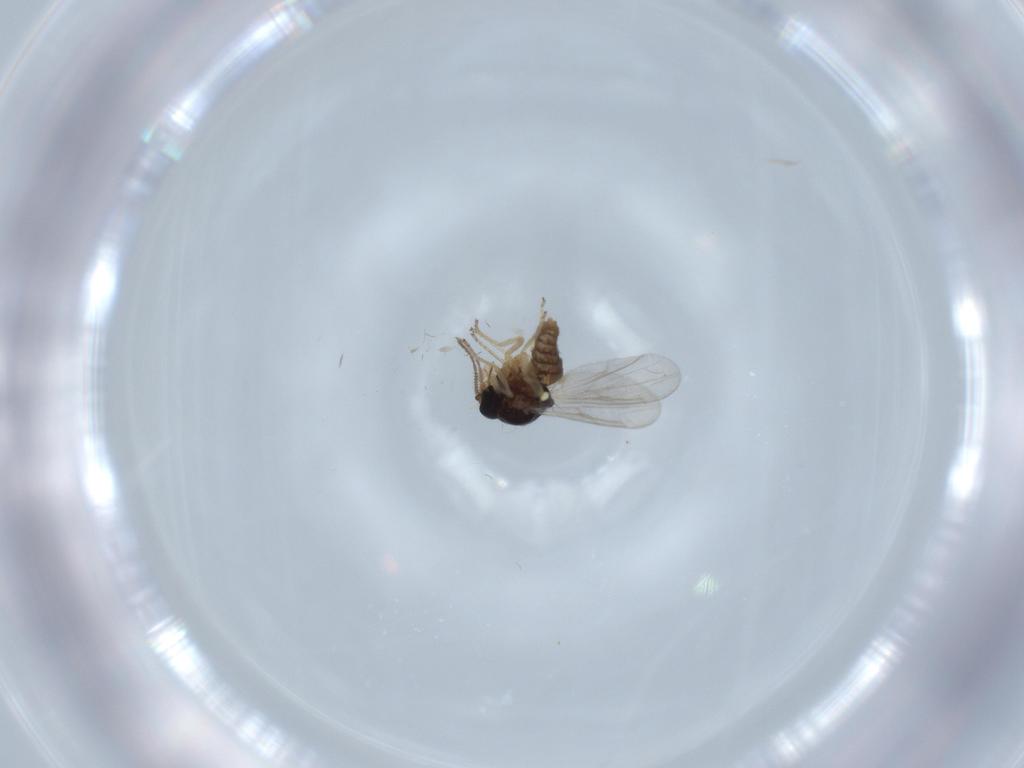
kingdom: Animalia
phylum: Arthropoda
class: Insecta
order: Diptera
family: Ceratopogonidae
